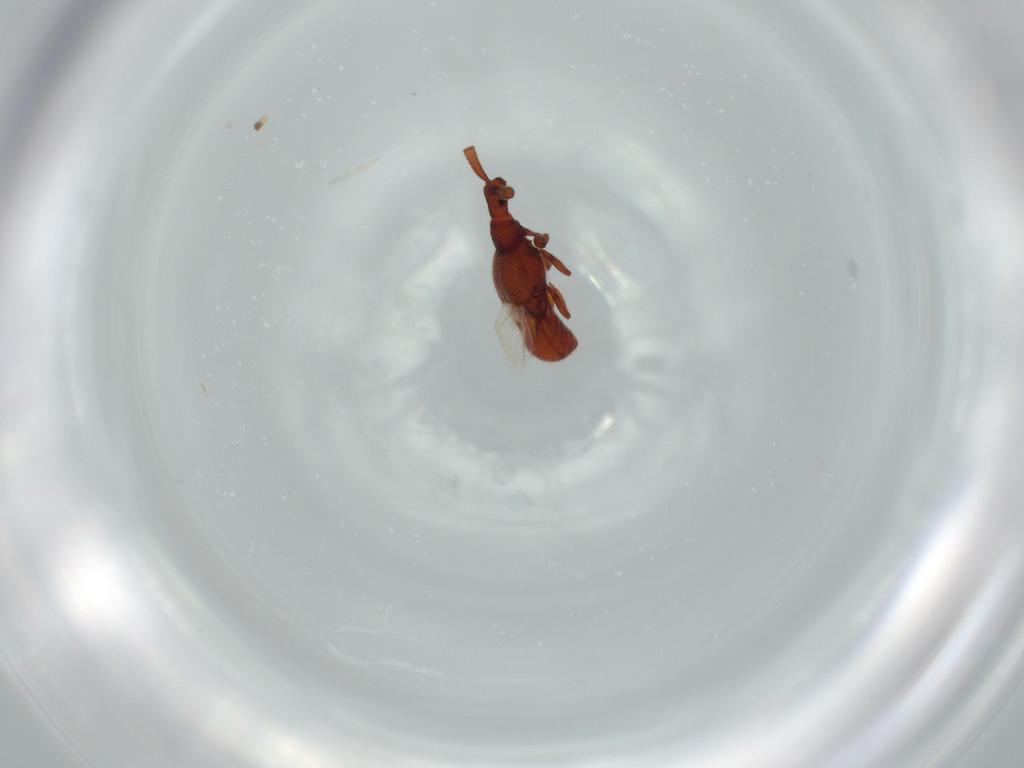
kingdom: Animalia
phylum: Arthropoda
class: Insecta
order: Coleoptera
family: Staphylinidae
